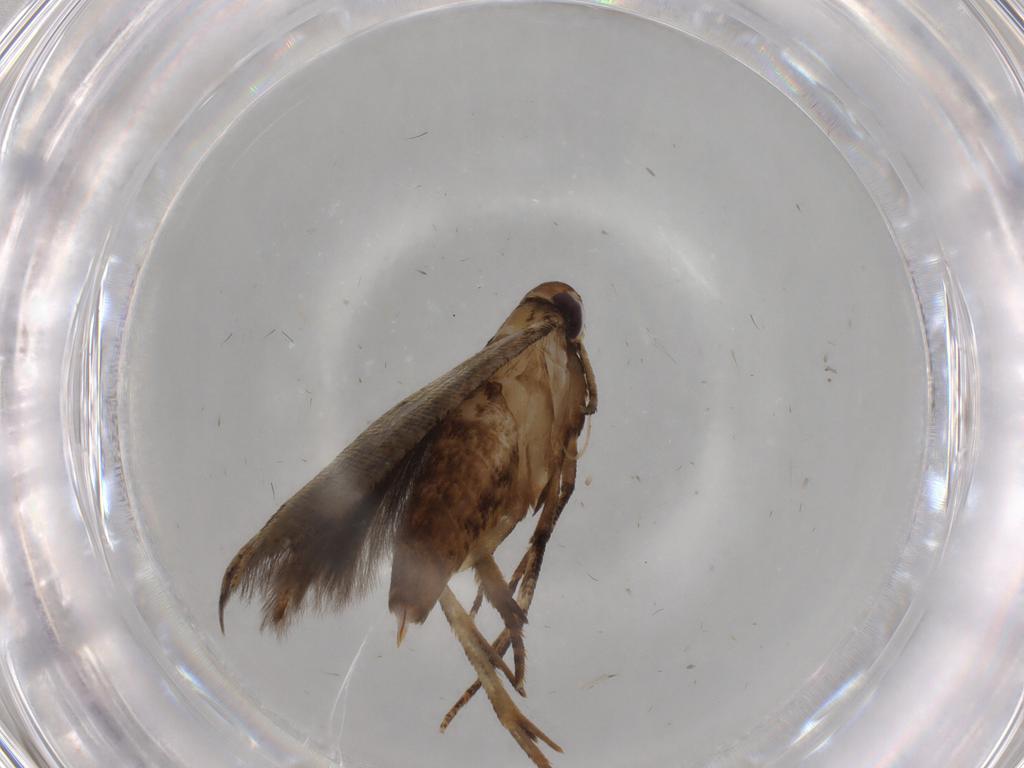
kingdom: Animalia
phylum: Arthropoda
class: Insecta
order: Lepidoptera
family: Depressariidae
